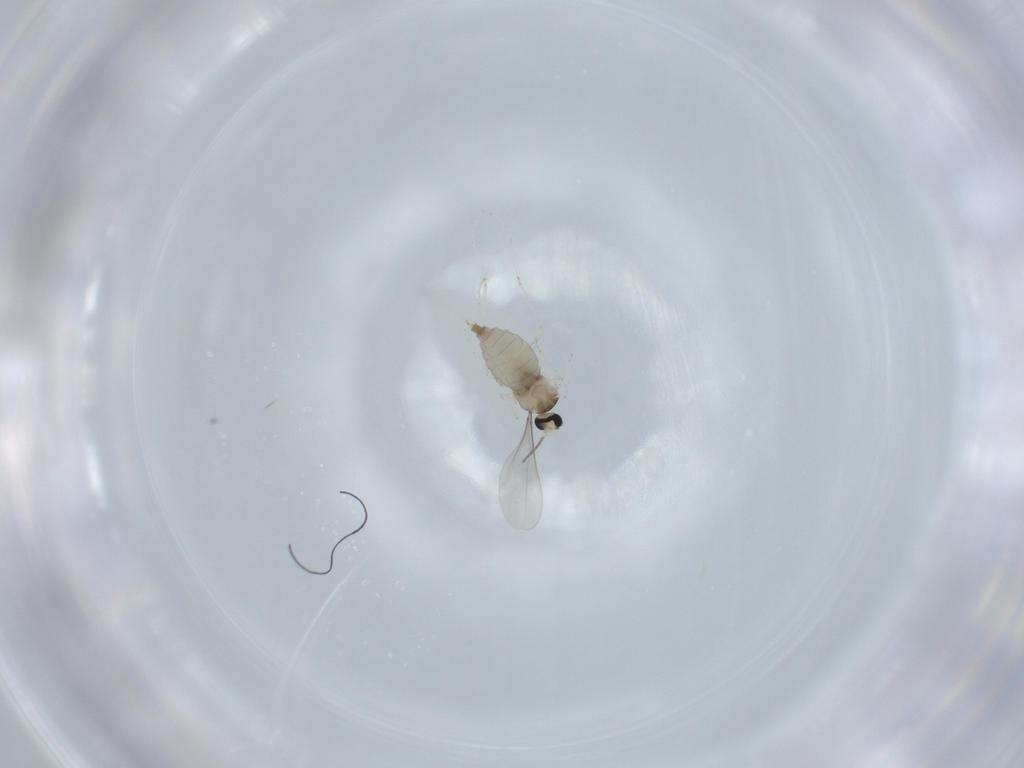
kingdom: Animalia
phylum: Arthropoda
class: Insecta
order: Diptera
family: Cecidomyiidae
